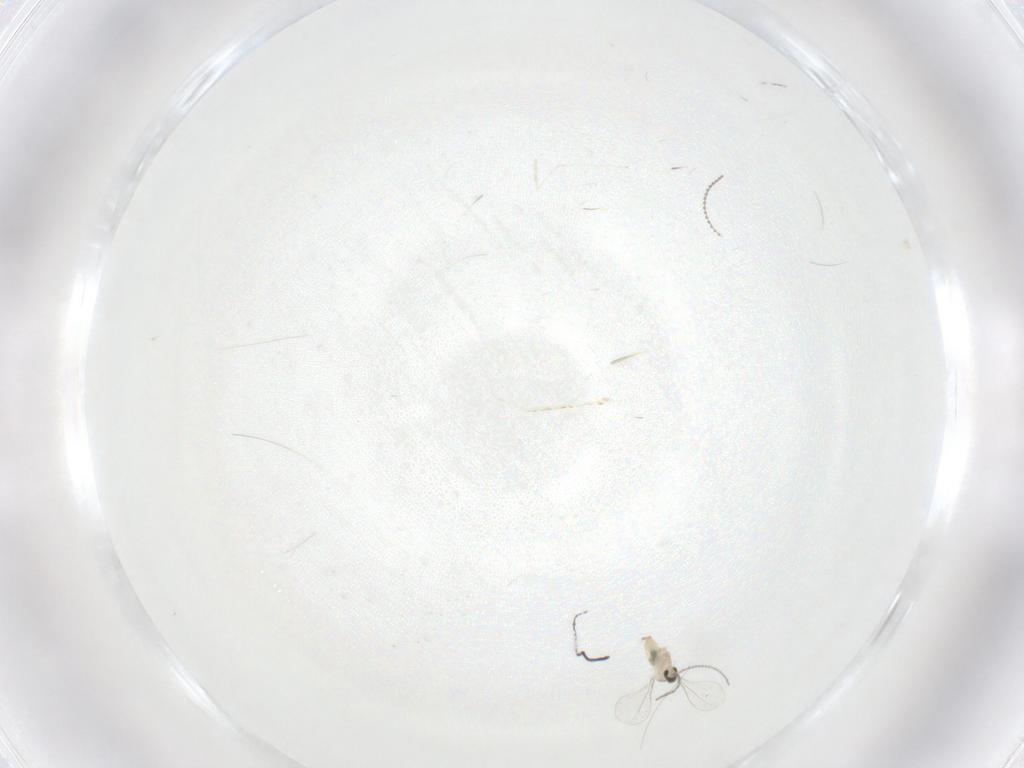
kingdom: Animalia
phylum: Arthropoda
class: Insecta
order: Diptera
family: Cecidomyiidae
